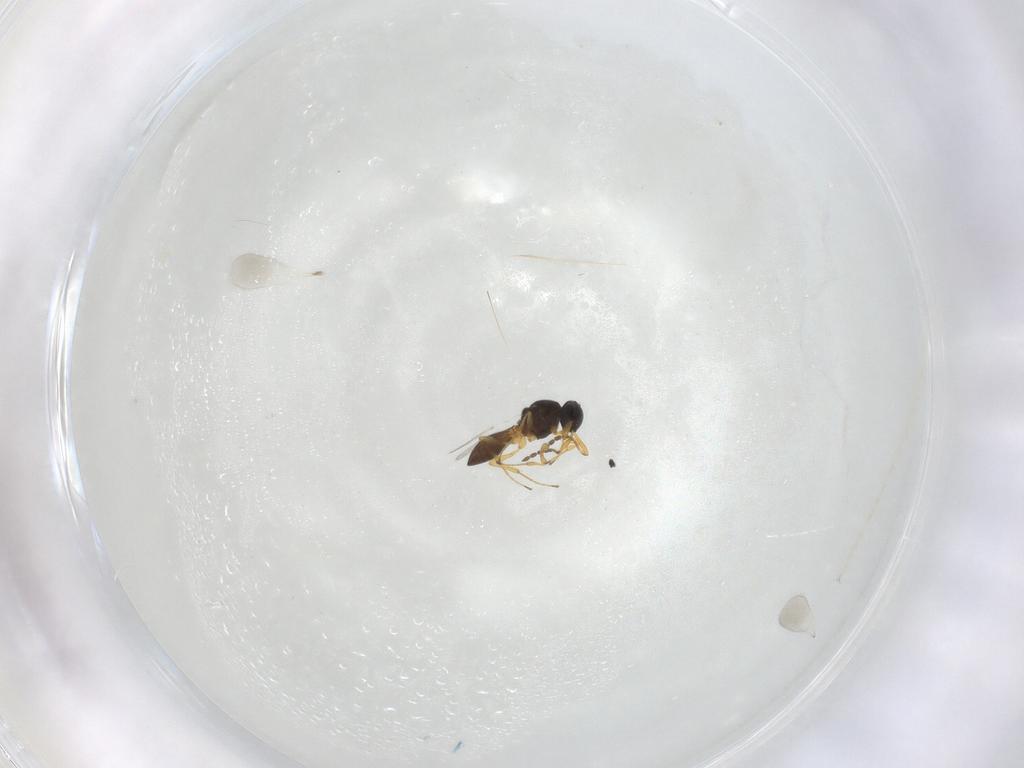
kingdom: Animalia
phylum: Arthropoda
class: Insecta
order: Hymenoptera
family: Platygastridae
